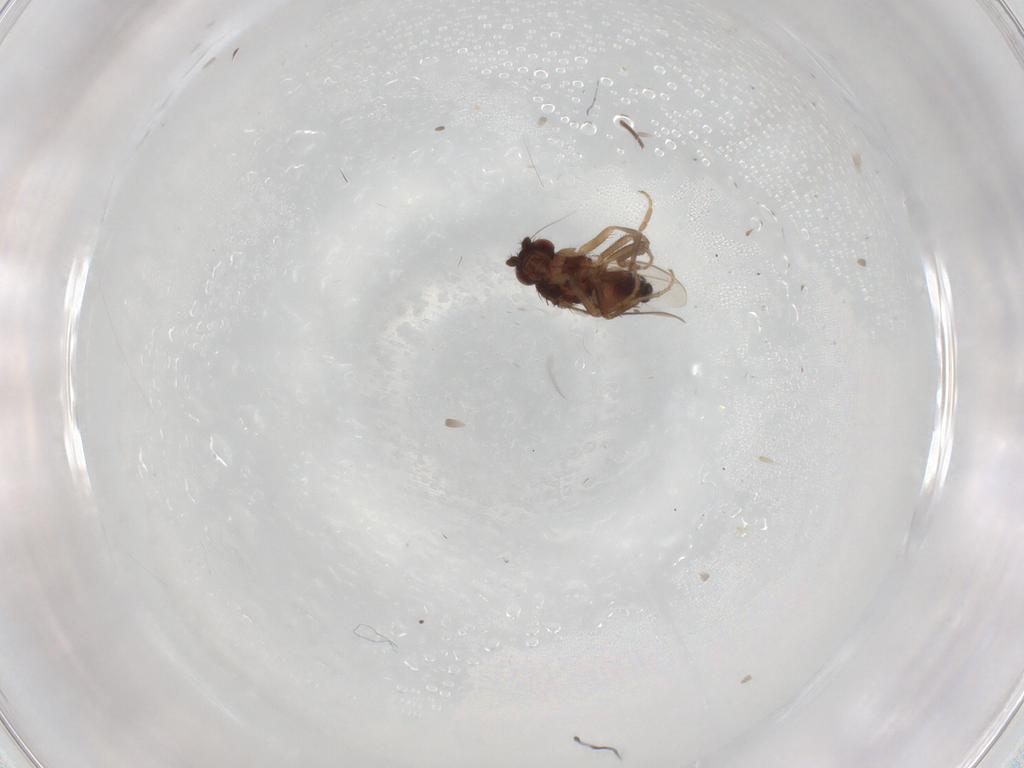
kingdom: Animalia
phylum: Arthropoda
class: Insecta
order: Diptera
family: Sphaeroceridae
